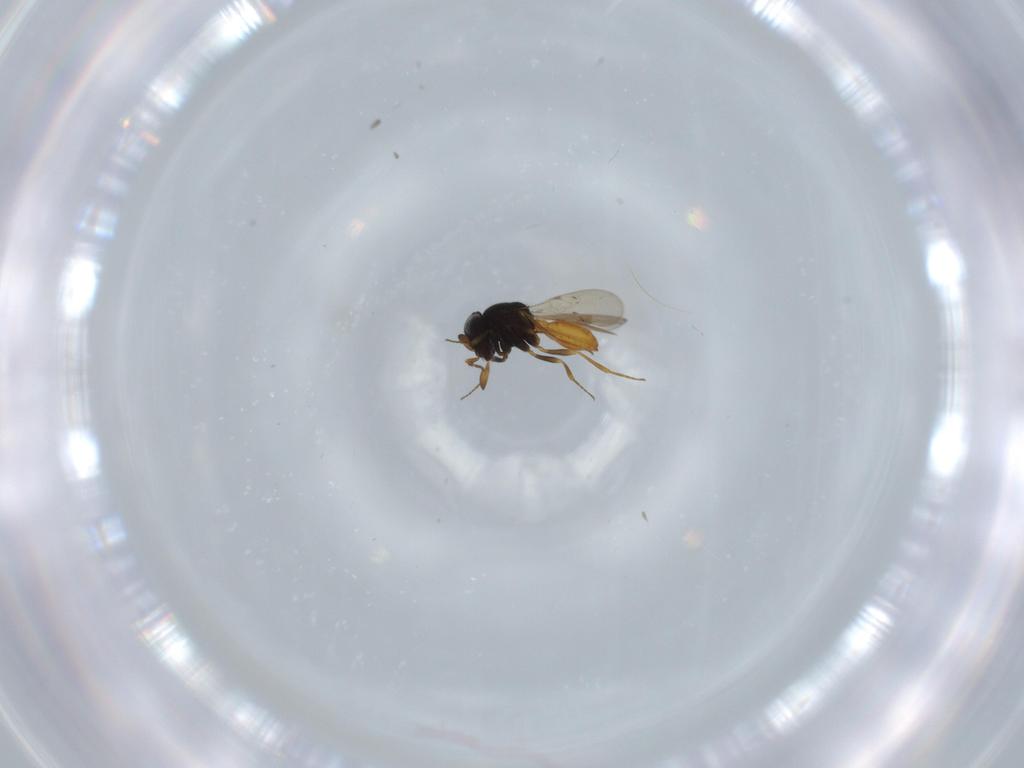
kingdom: Animalia
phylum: Arthropoda
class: Insecta
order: Hymenoptera
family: Scelionidae
